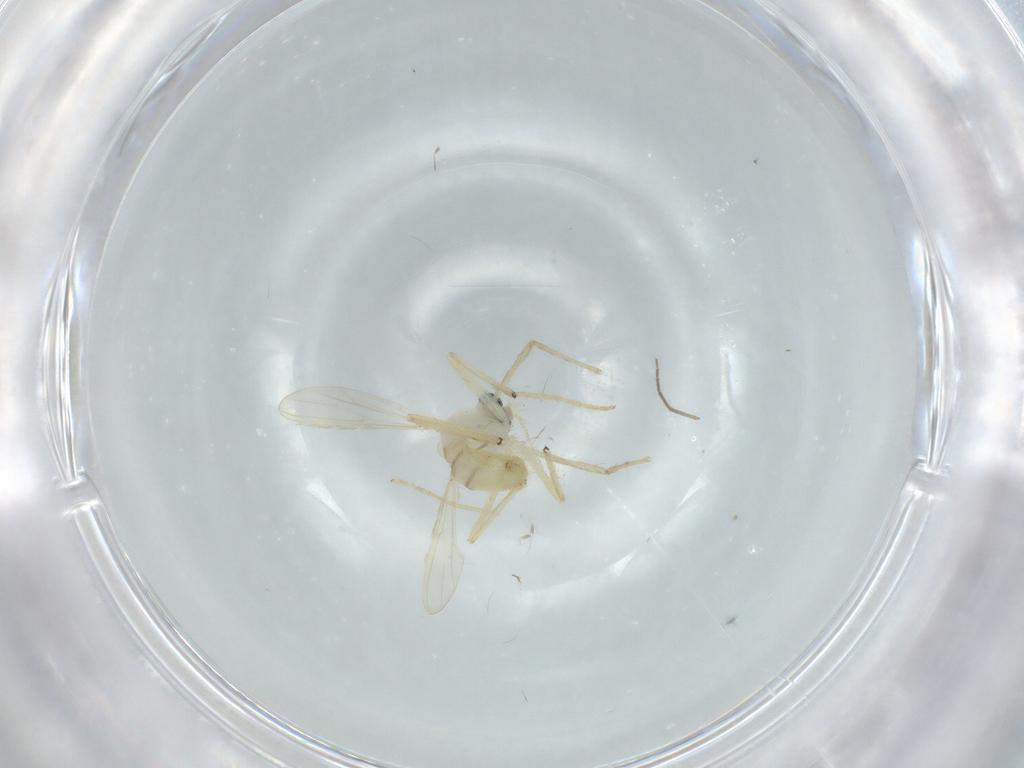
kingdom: Animalia
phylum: Arthropoda
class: Insecta
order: Diptera
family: Chironomidae
